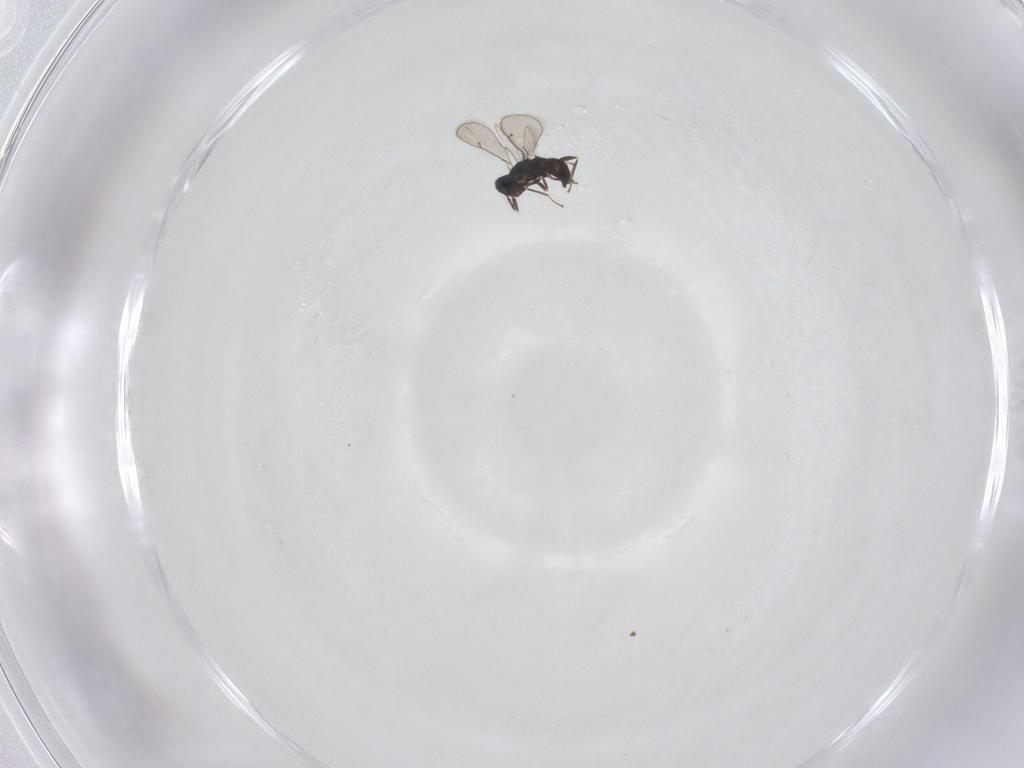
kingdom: Animalia
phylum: Arthropoda
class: Insecta
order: Hymenoptera
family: Eulophidae
